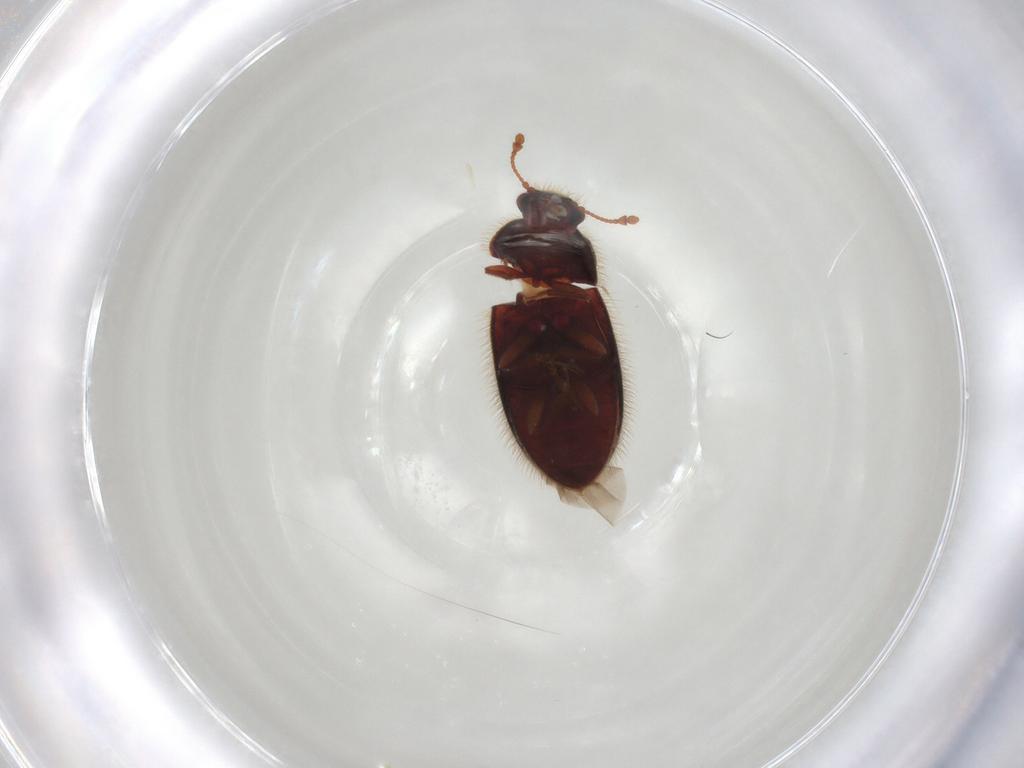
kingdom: Animalia
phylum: Arthropoda
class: Insecta
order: Coleoptera
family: Biphyllidae
